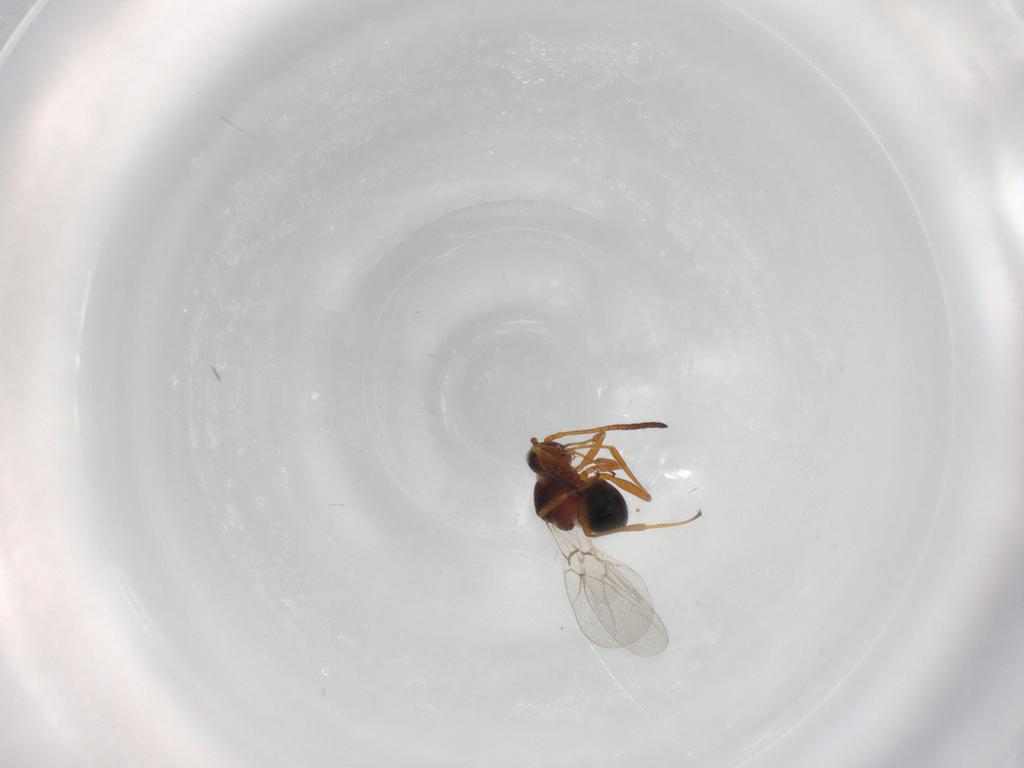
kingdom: Animalia
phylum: Arthropoda
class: Insecta
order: Hymenoptera
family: Figitidae
